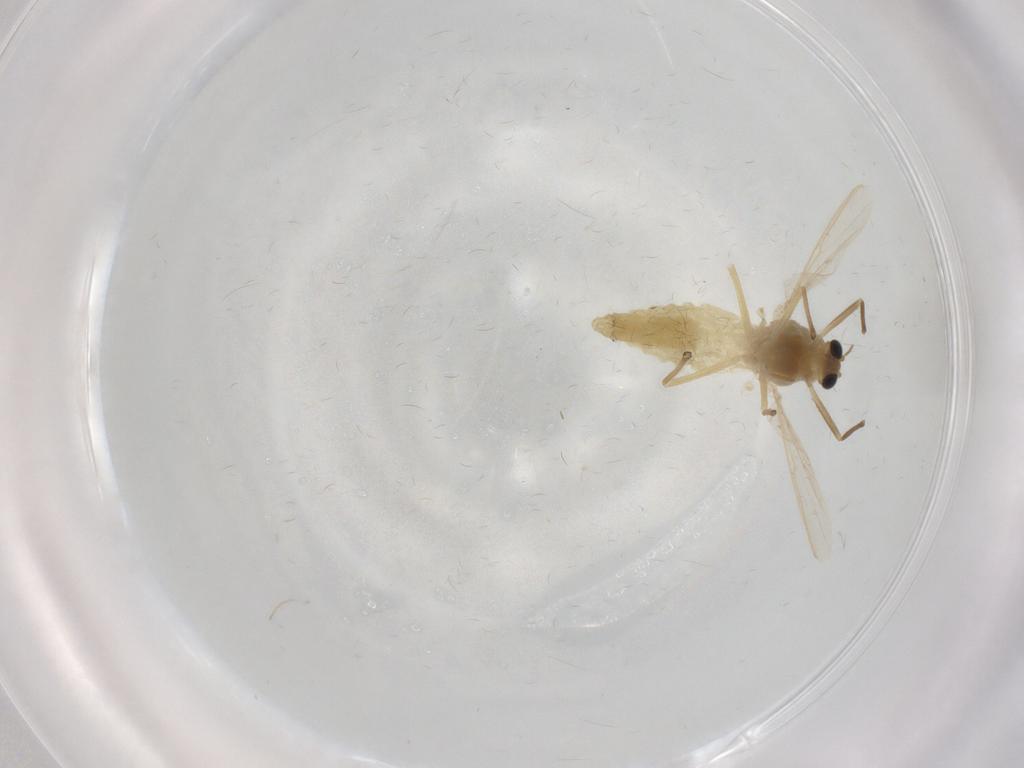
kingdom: Animalia
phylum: Arthropoda
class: Insecta
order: Diptera
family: Chironomidae
